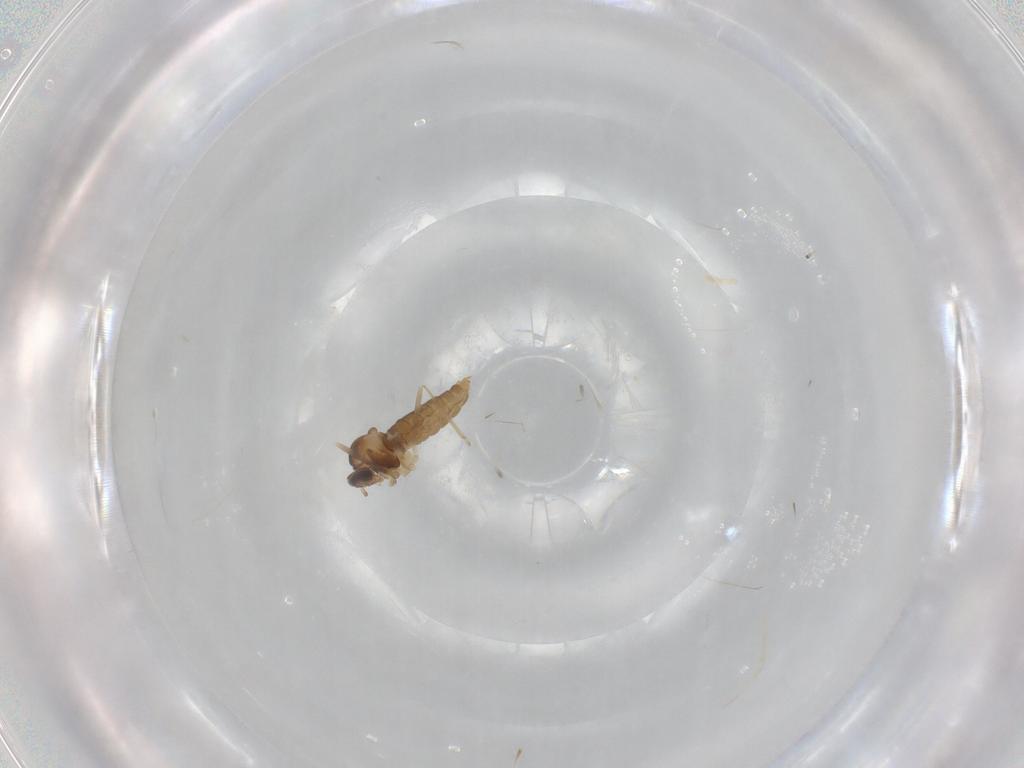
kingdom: Animalia
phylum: Arthropoda
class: Insecta
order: Diptera
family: Cecidomyiidae
